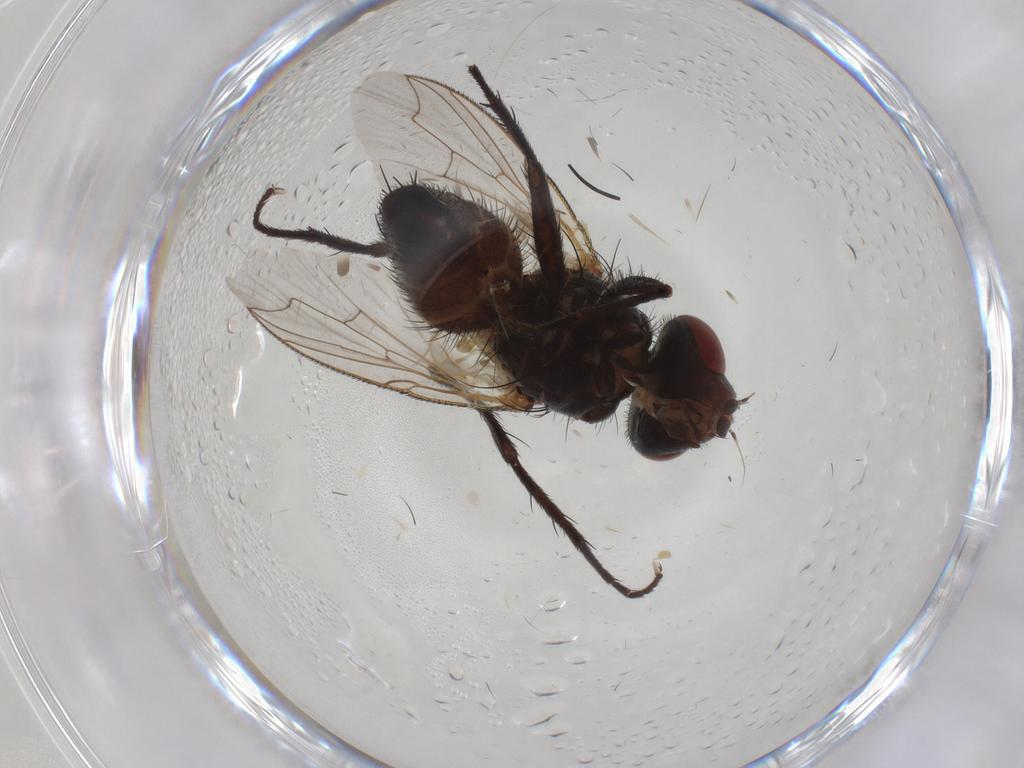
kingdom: Animalia
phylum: Arthropoda
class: Insecta
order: Diptera
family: Sarcophagidae
